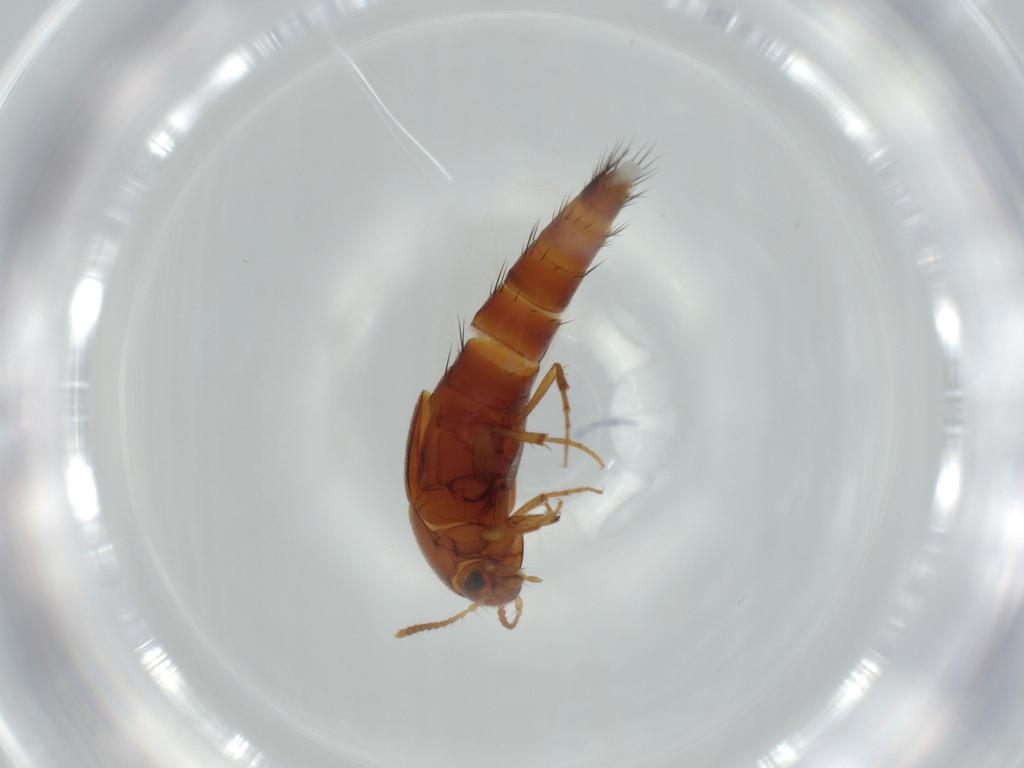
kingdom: Animalia
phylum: Arthropoda
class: Insecta
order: Coleoptera
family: Staphylinidae
